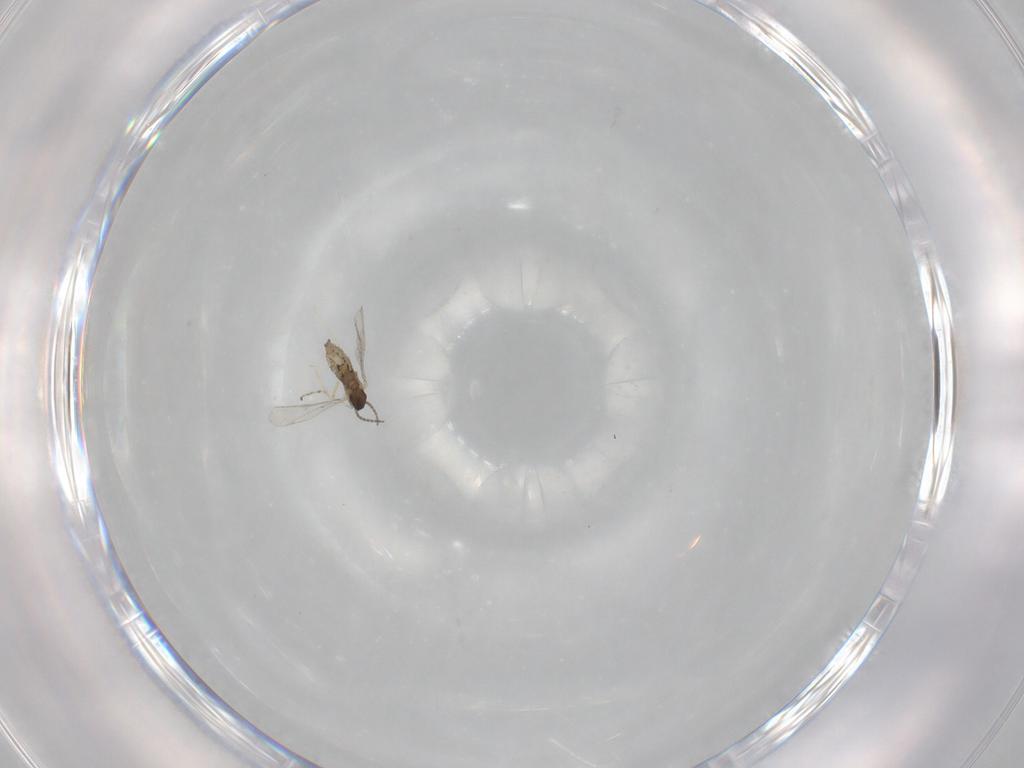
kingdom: Animalia
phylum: Arthropoda
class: Insecta
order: Diptera
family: Cecidomyiidae
